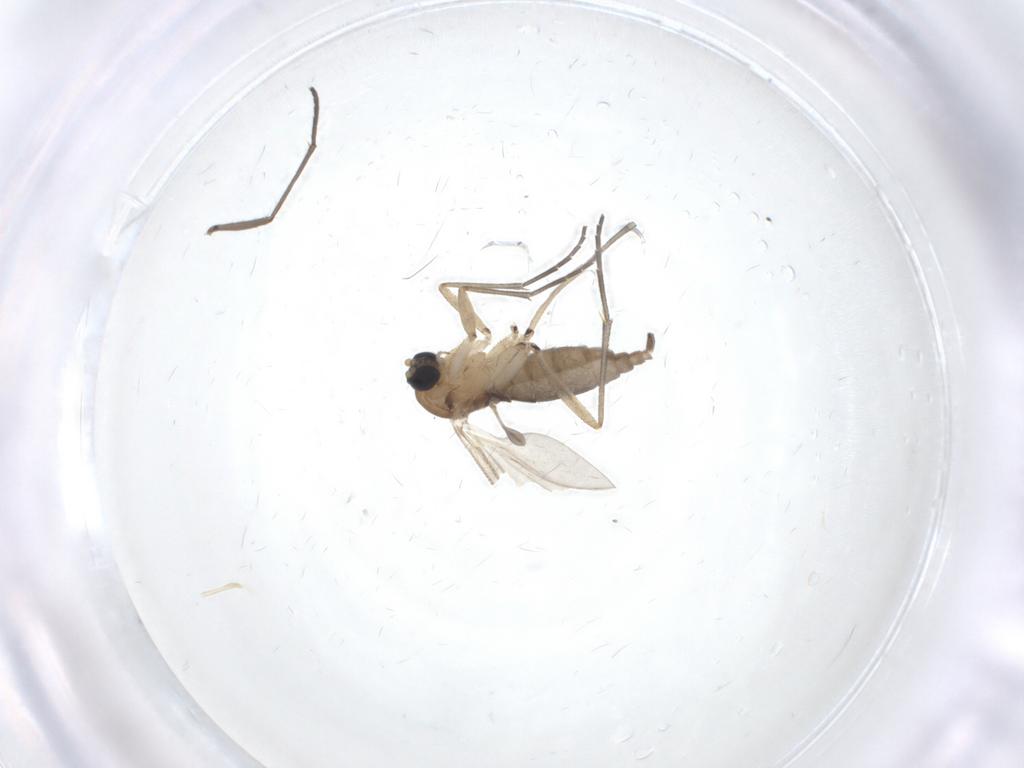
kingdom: Animalia
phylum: Arthropoda
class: Insecta
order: Diptera
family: Sciaridae
